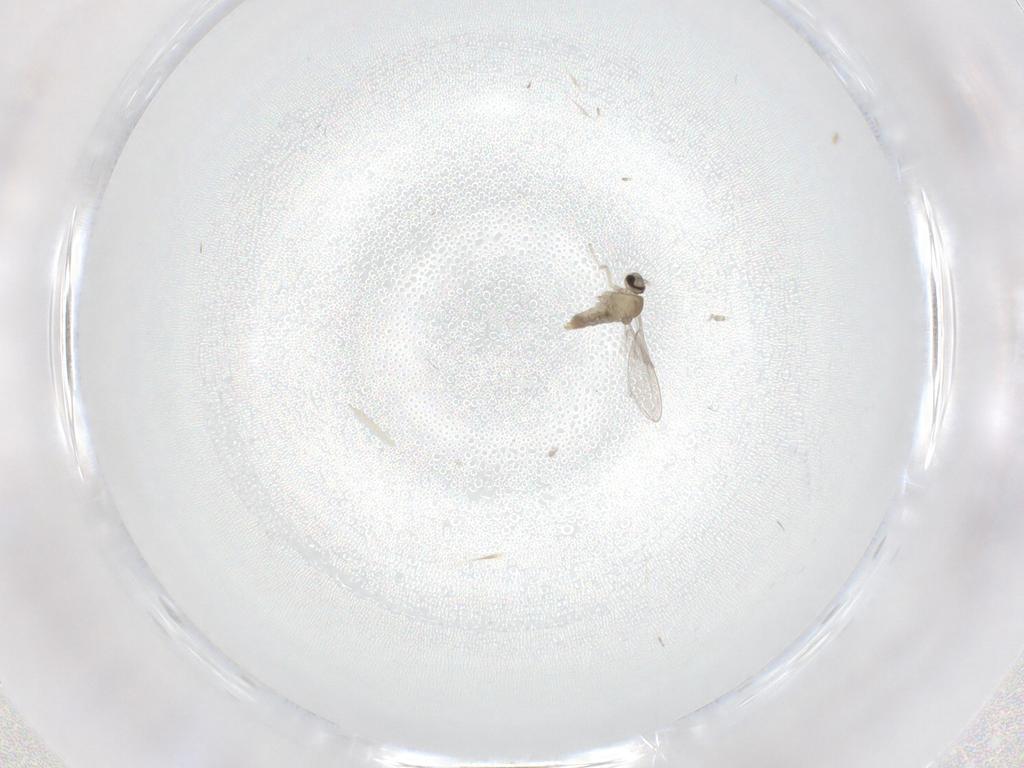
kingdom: Animalia
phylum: Arthropoda
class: Insecta
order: Diptera
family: Cecidomyiidae
